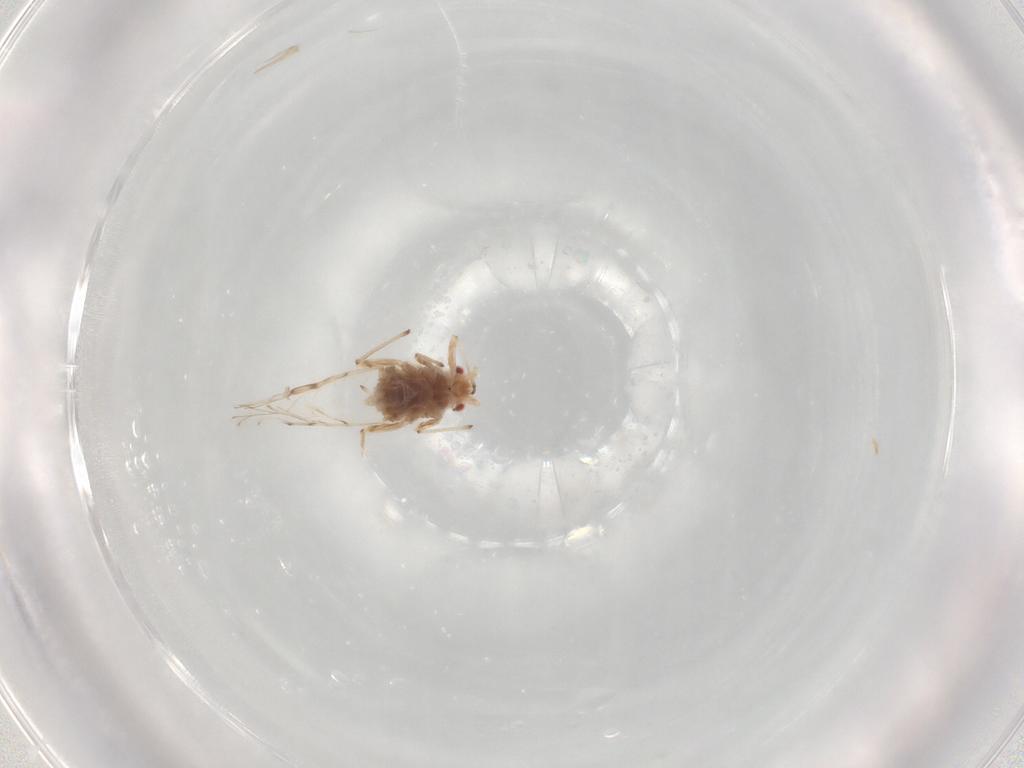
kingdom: Animalia
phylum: Arthropoda
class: Insecta
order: Hemiptera
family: Aphididae
